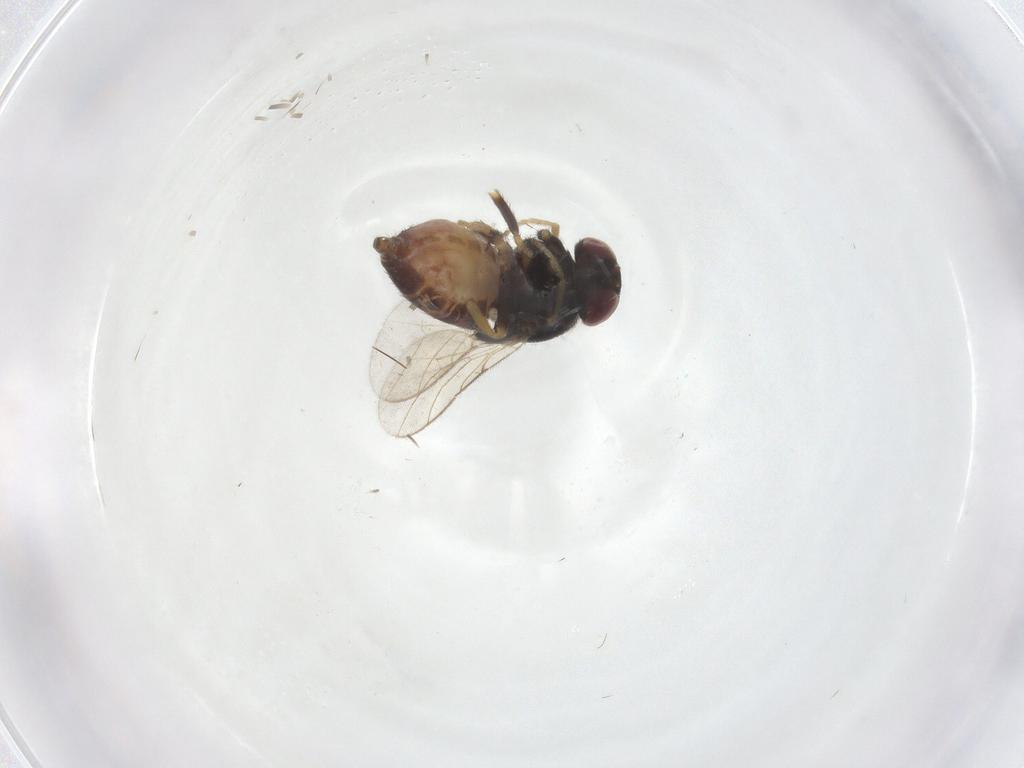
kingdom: Animalia
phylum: Arthropoda
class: Insecta
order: Diptera
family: Chloropidae
